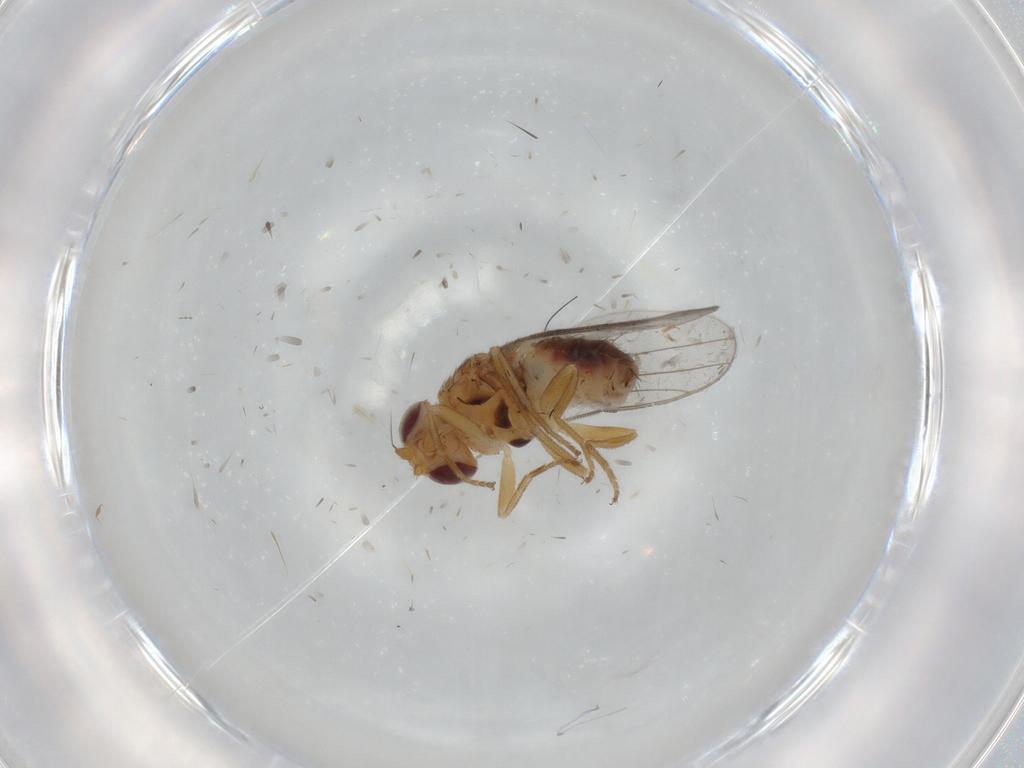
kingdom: Animalia
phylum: Arthropoda
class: Insecta
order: Diptera
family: Chloropidae
